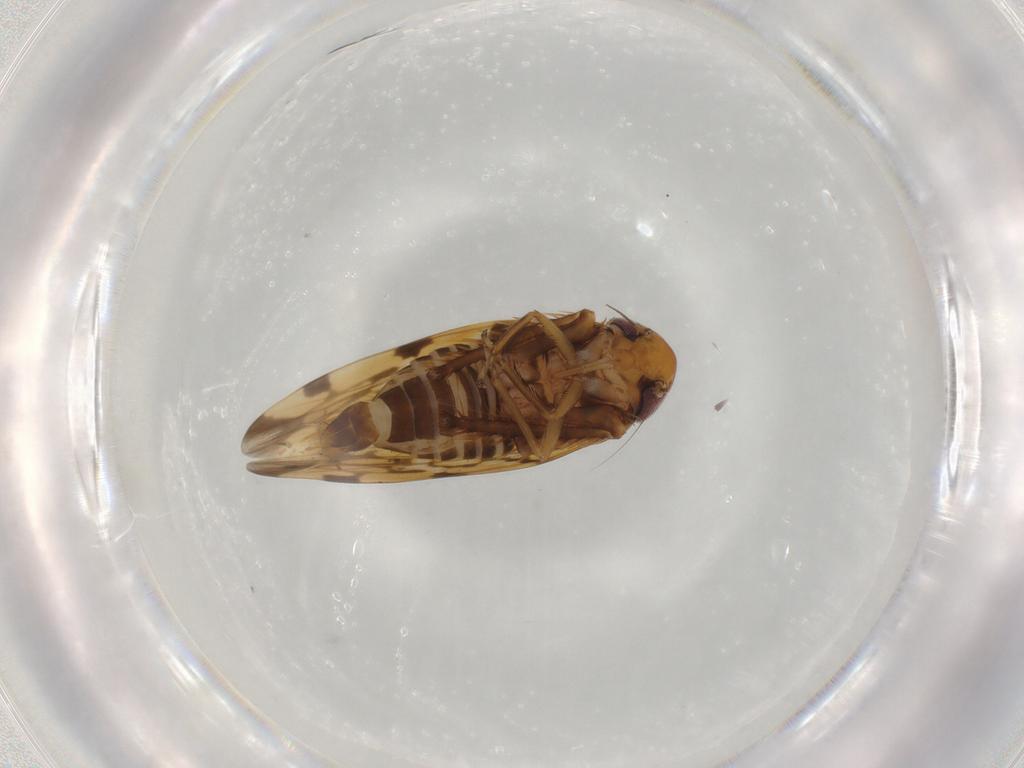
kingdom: Animalia
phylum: Arthropoda
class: Insecta
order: Hemiptera
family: Cicadellidae
